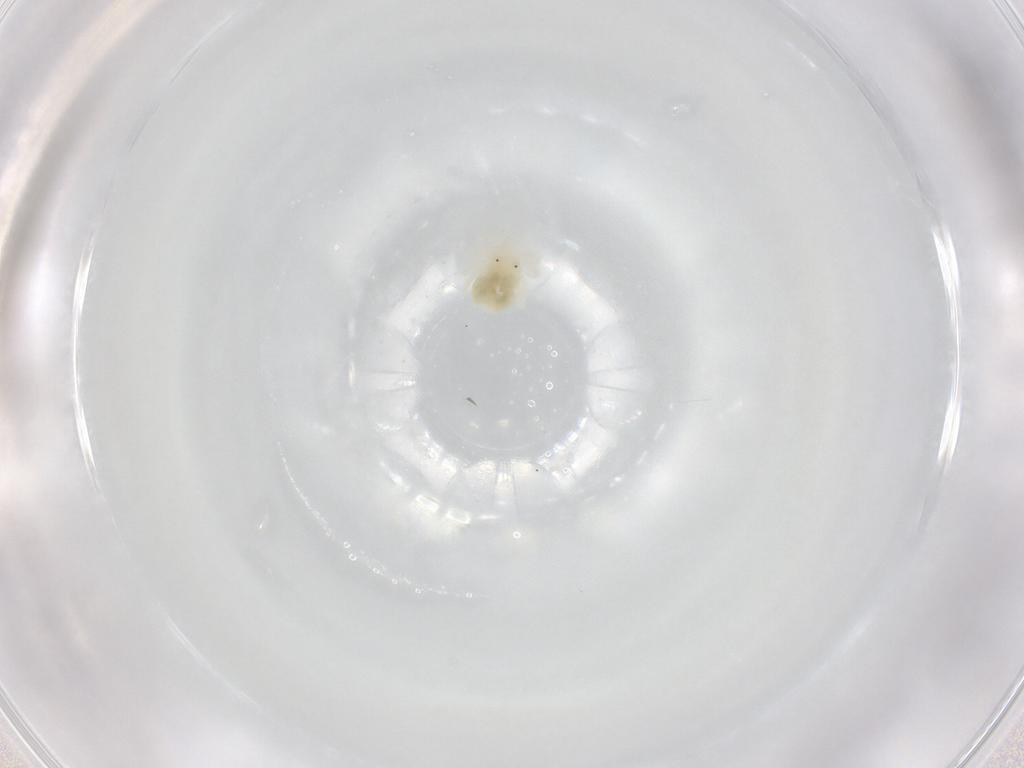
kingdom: Animalia
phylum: Arthropoda
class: Arachnida
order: Trombidiformes
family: Anystidae
